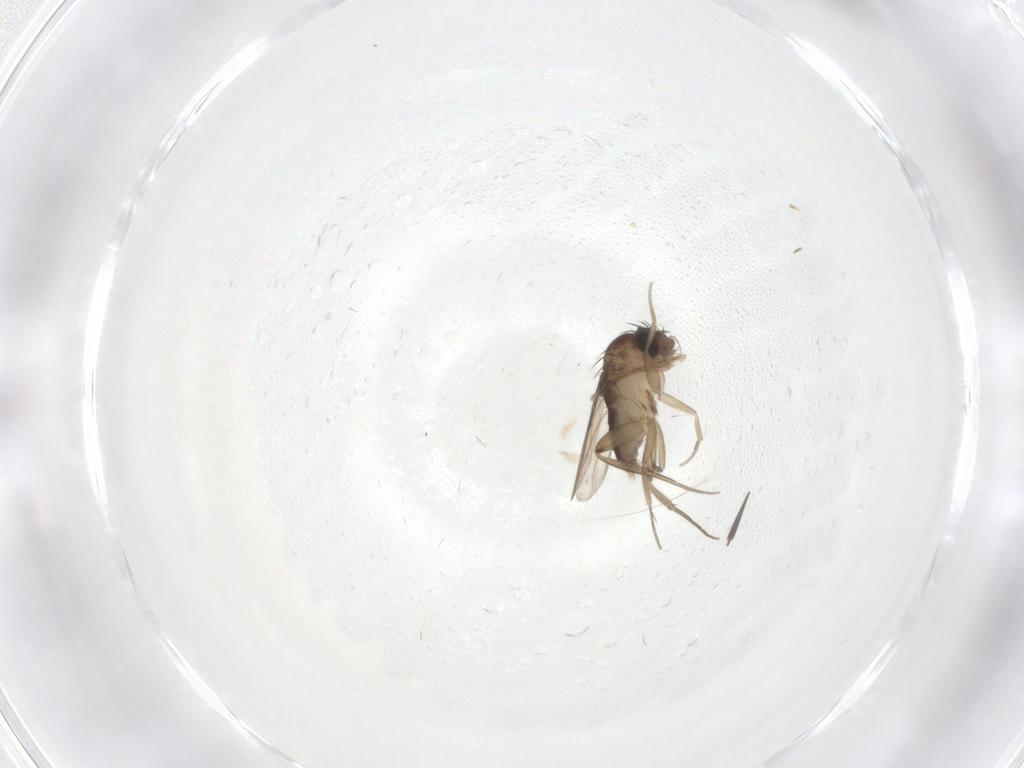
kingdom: Animalia
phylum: Arthropoda
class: Insecta
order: Diptera
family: Phoridae
